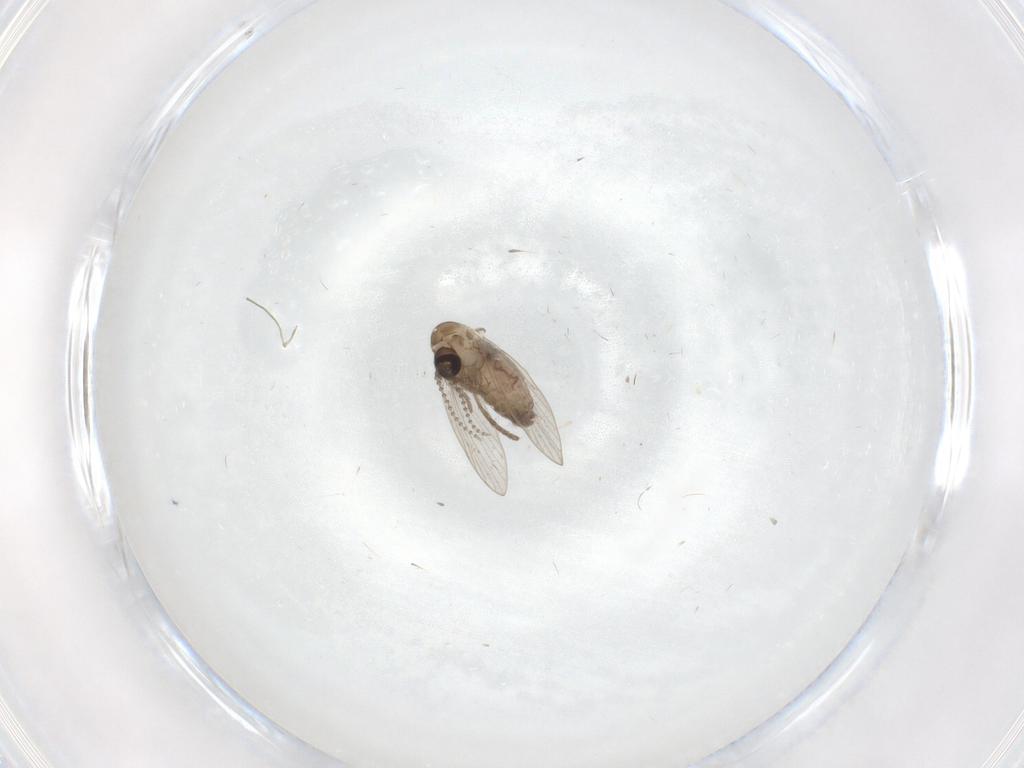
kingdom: Animalia
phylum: Arthropoda
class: Insecta
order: Diptera
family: Psychodidae
